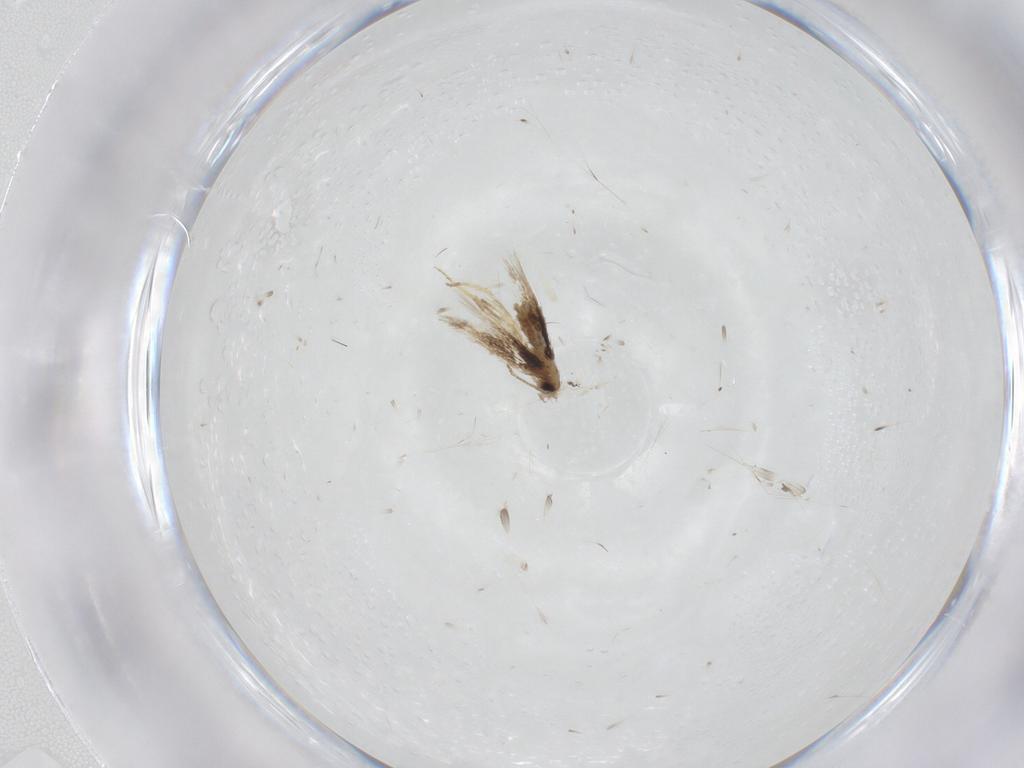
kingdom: Animalia
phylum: Arthropoda
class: Insecta
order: Lepidoptera
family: Nepticulidae
